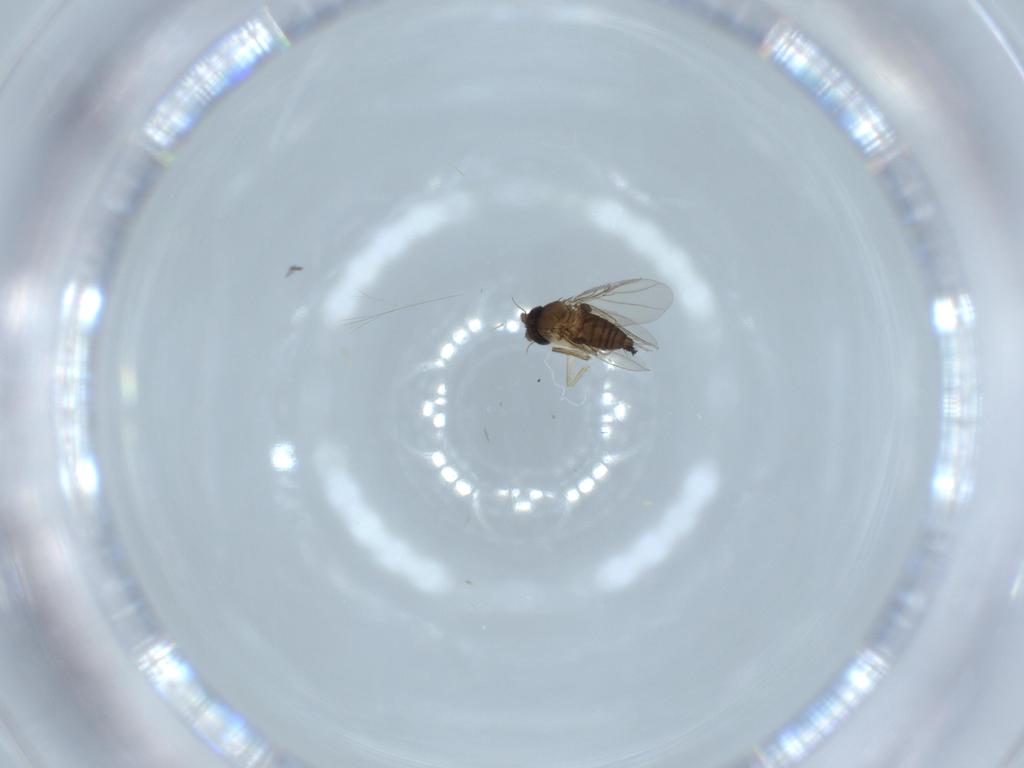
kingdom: Animalia
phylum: Arthropoda
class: Insecta
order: Diptera
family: Phoridae
